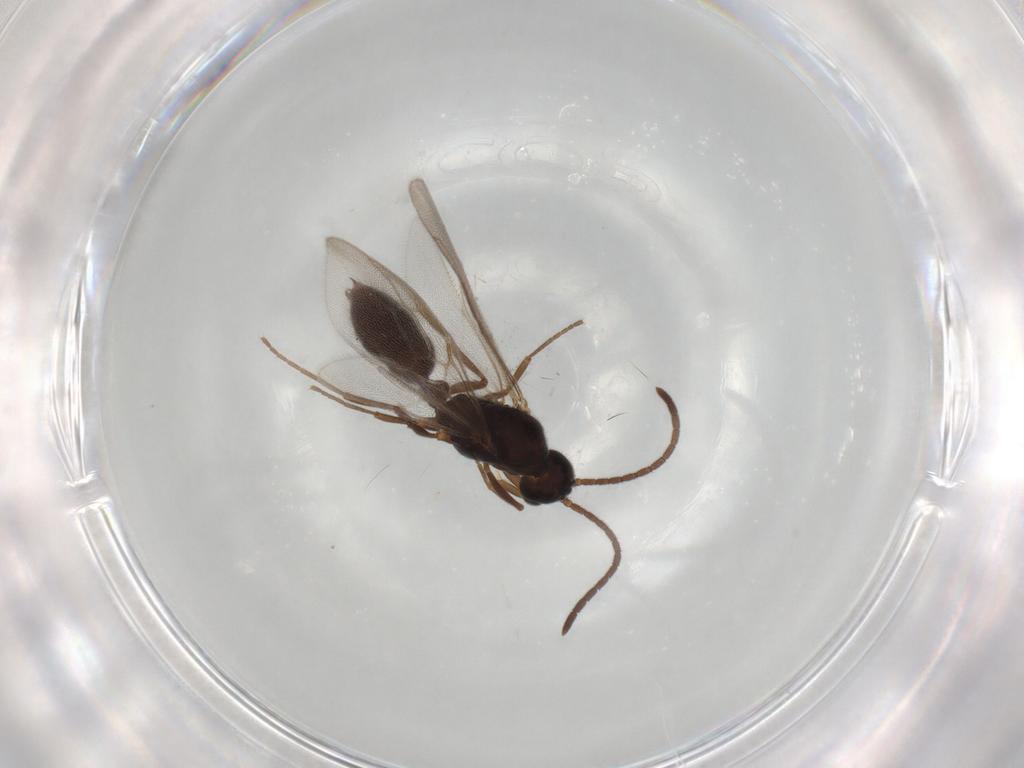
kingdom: Animalia
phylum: Arthropoda
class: Insecta
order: Hymenoptera
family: Formicidae
